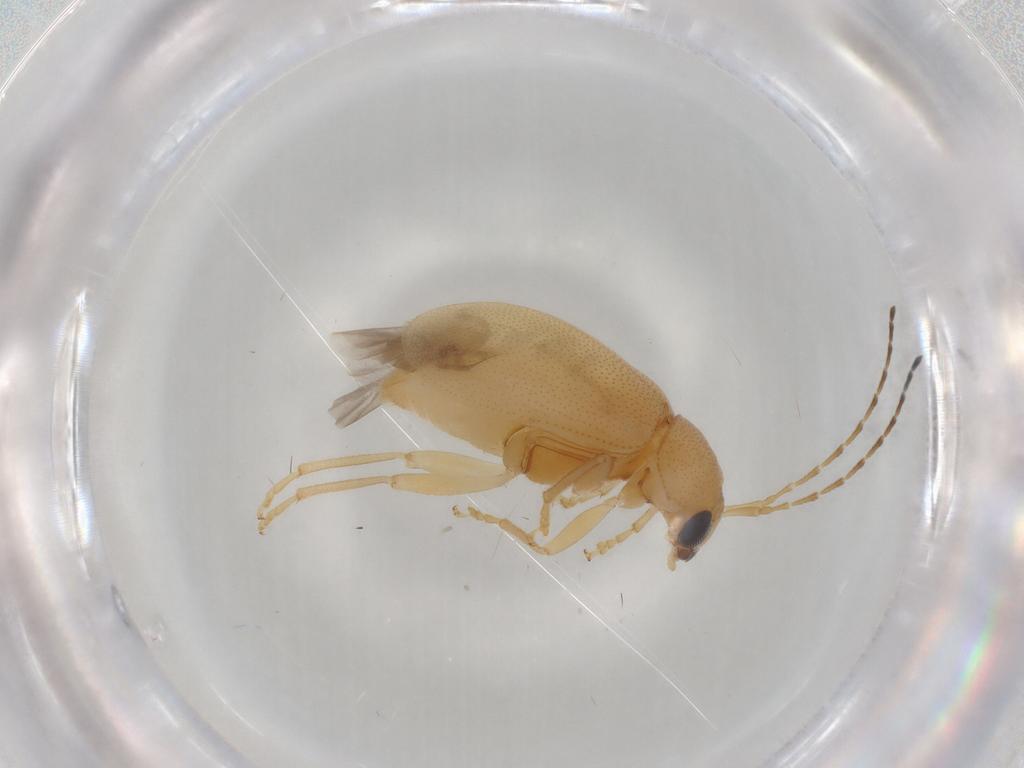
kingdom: Animalia
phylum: Arthropoda
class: Insecta
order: Coleoptera
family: Chrysomelidae
